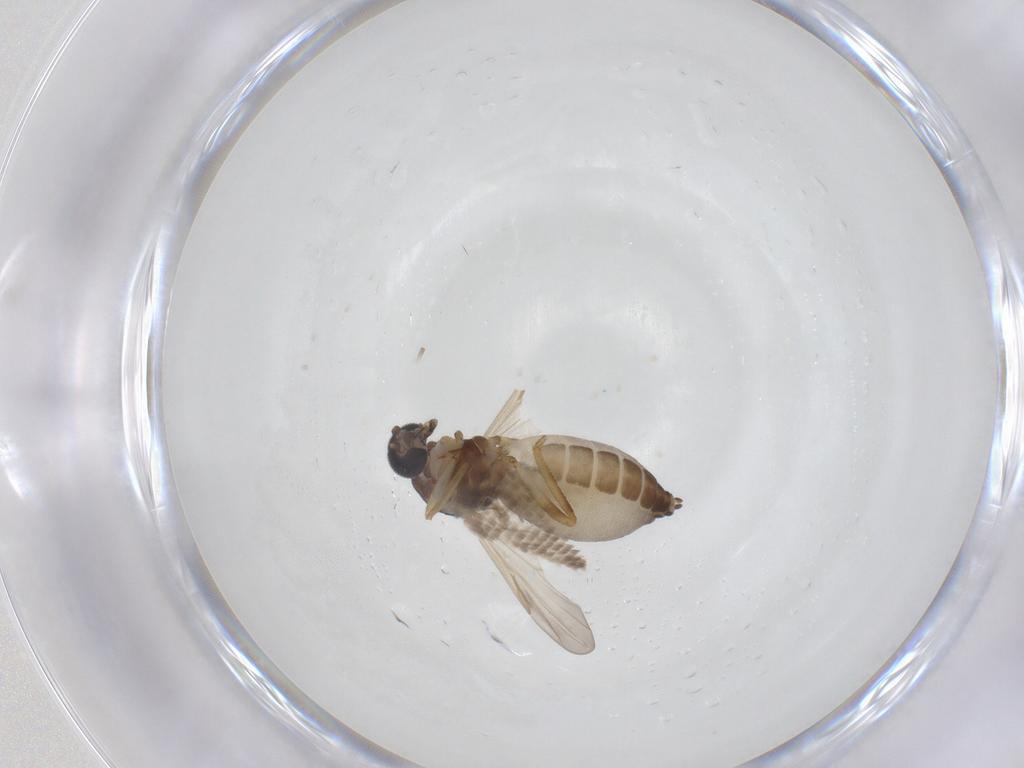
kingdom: Animalia
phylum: Arthropoda
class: Insecta
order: Diptera
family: Ceratopogonidae
